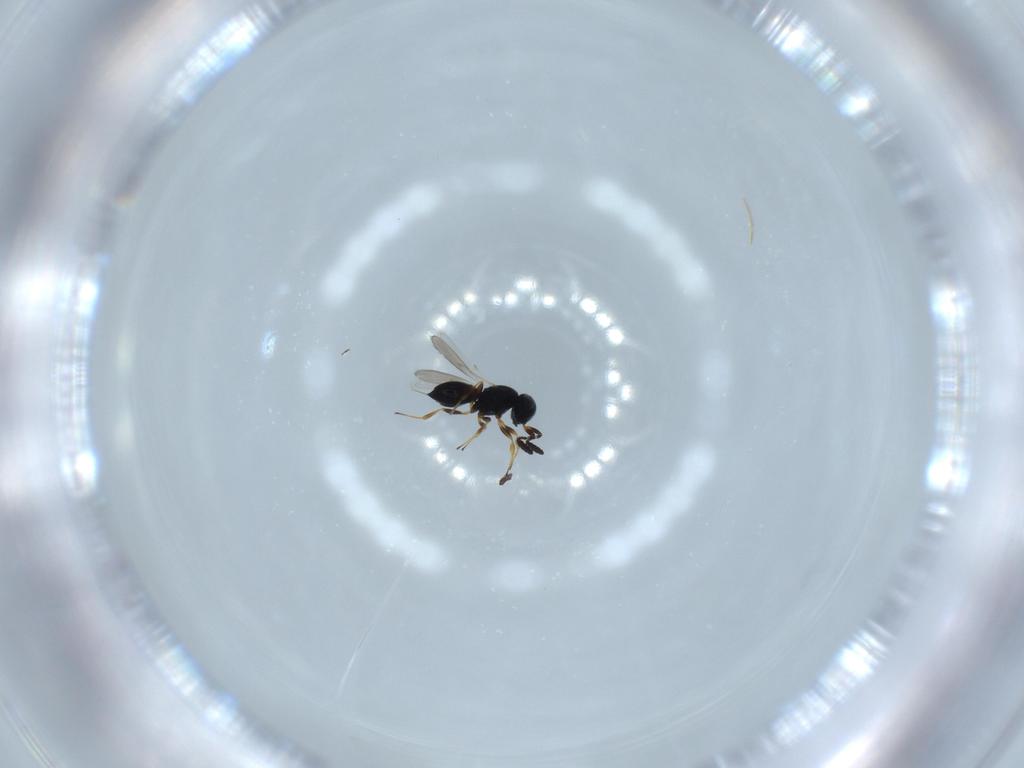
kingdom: Animalia
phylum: Arthropoda
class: Insecta
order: Hymenoptera
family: Scelionidae
